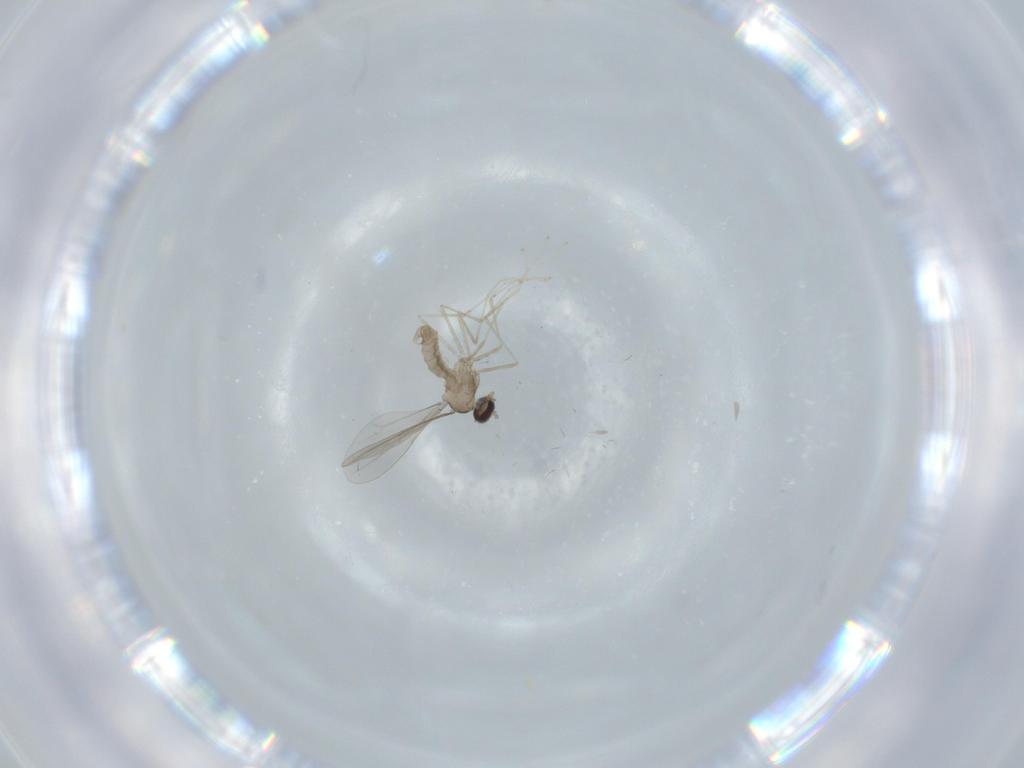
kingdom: Animalia
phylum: Arthropoda
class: Insecta
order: Diptera
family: Cecidomyiidae
